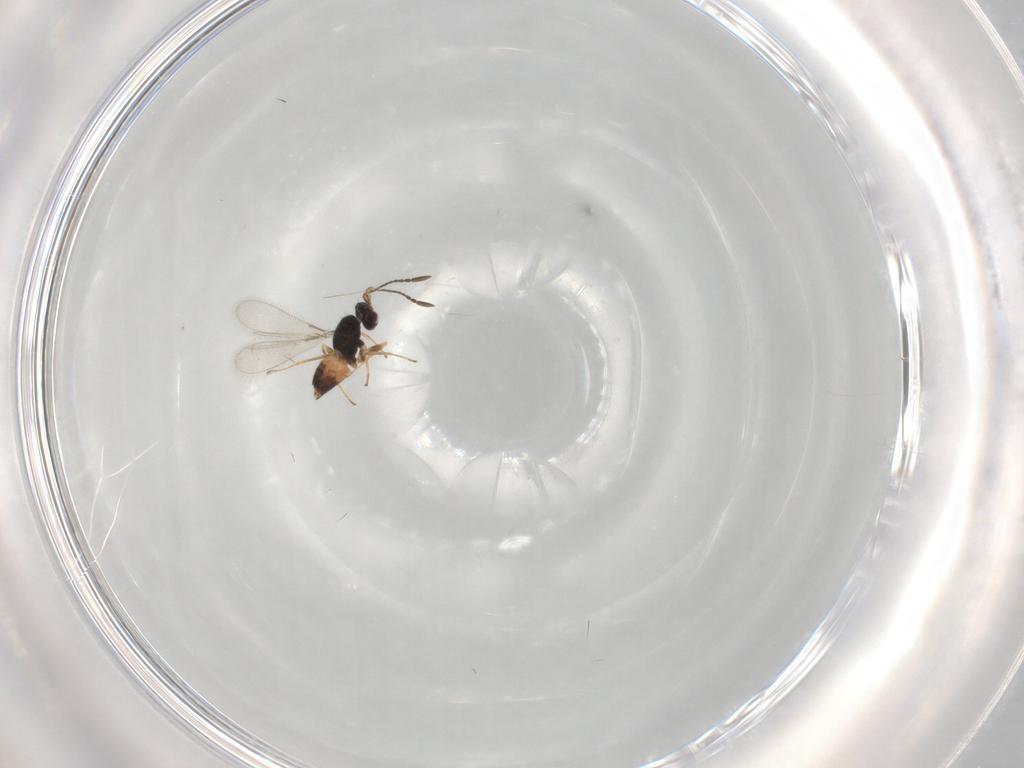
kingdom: Animalia
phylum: Arthropoda
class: Insecta
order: Hymenoptera
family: Mymaridae
